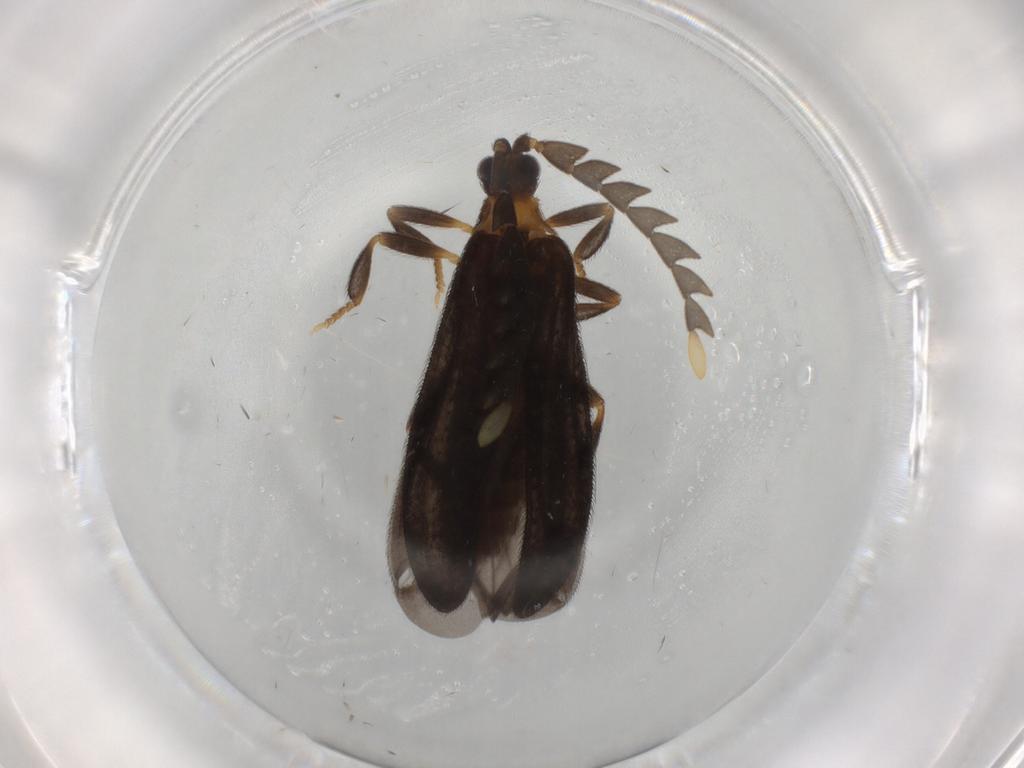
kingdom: Animalia
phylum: Arthropoda
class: Insecta
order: Coleoptera
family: Lycidae
